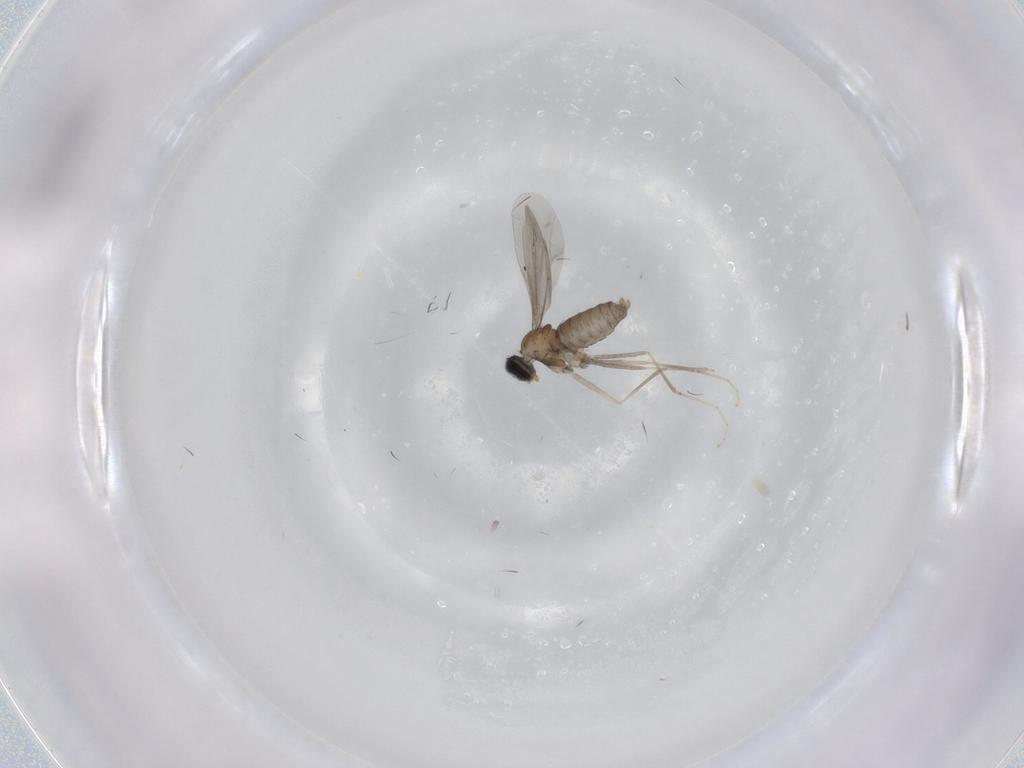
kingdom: Animalia
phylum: Arthropoda
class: Insecta
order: Diptera
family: Cecidomyiidae
